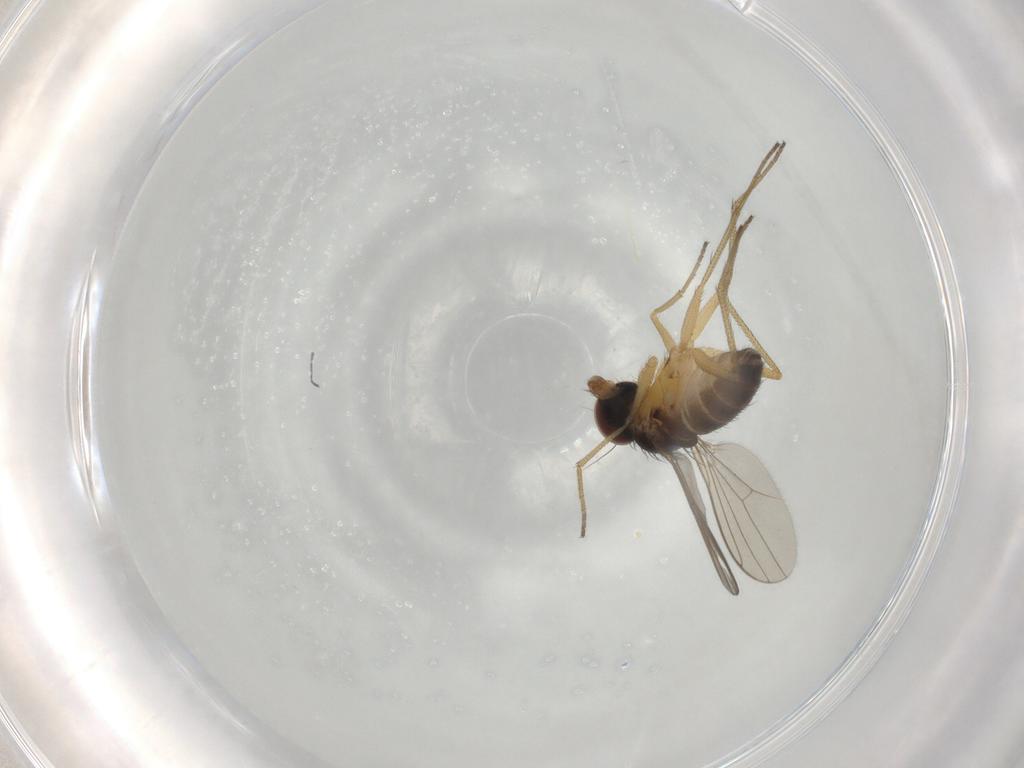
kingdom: Animalia
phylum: Arthropoda
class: Insecta
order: Diptera
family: Dolichopodidae
